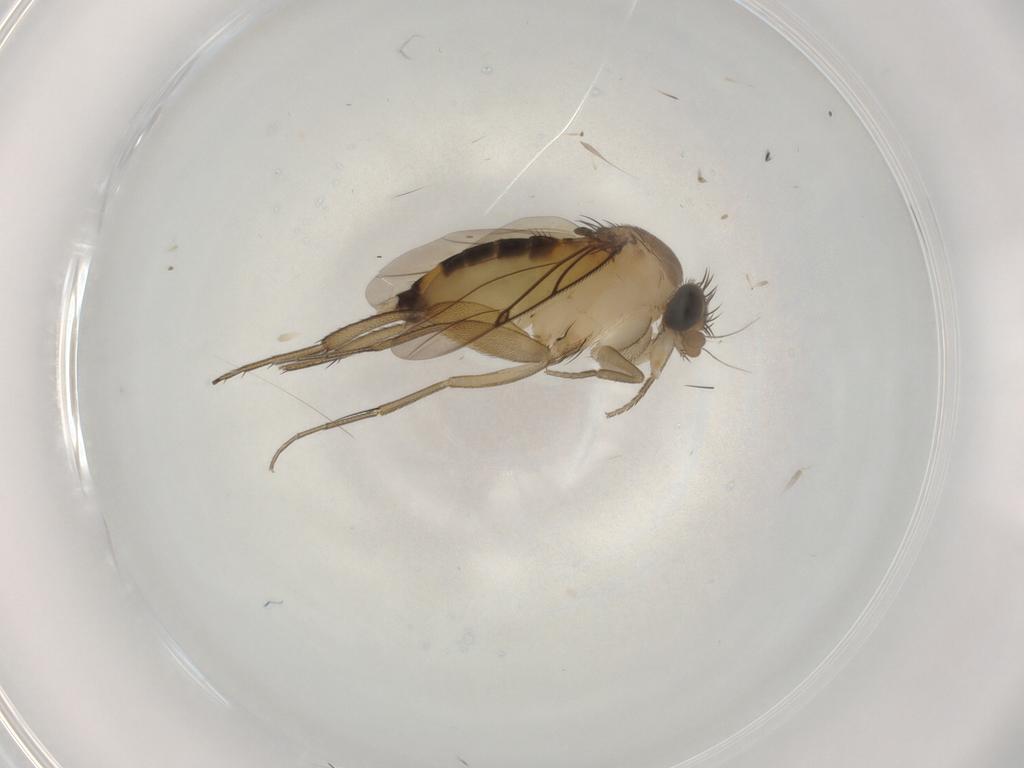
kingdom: Animalia
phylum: Arthropoda
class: Insecta
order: Diptera
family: Limoniidae
